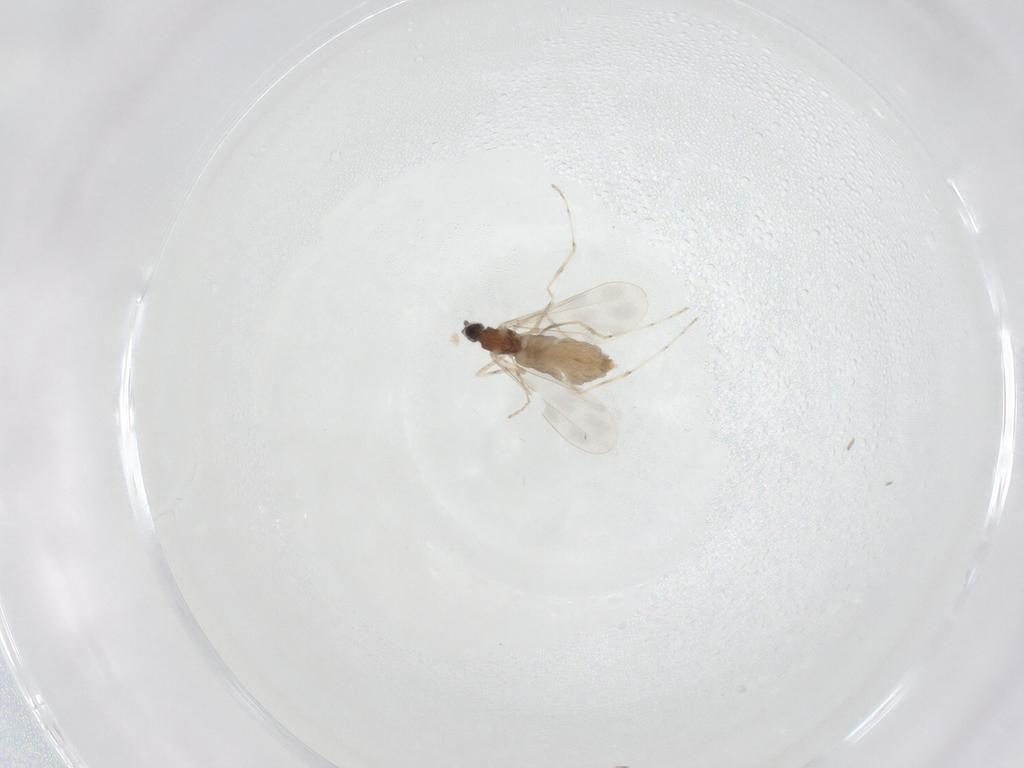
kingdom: Animalia
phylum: Arthropoda
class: Insecta
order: Diptera
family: Cecidomyiidae
